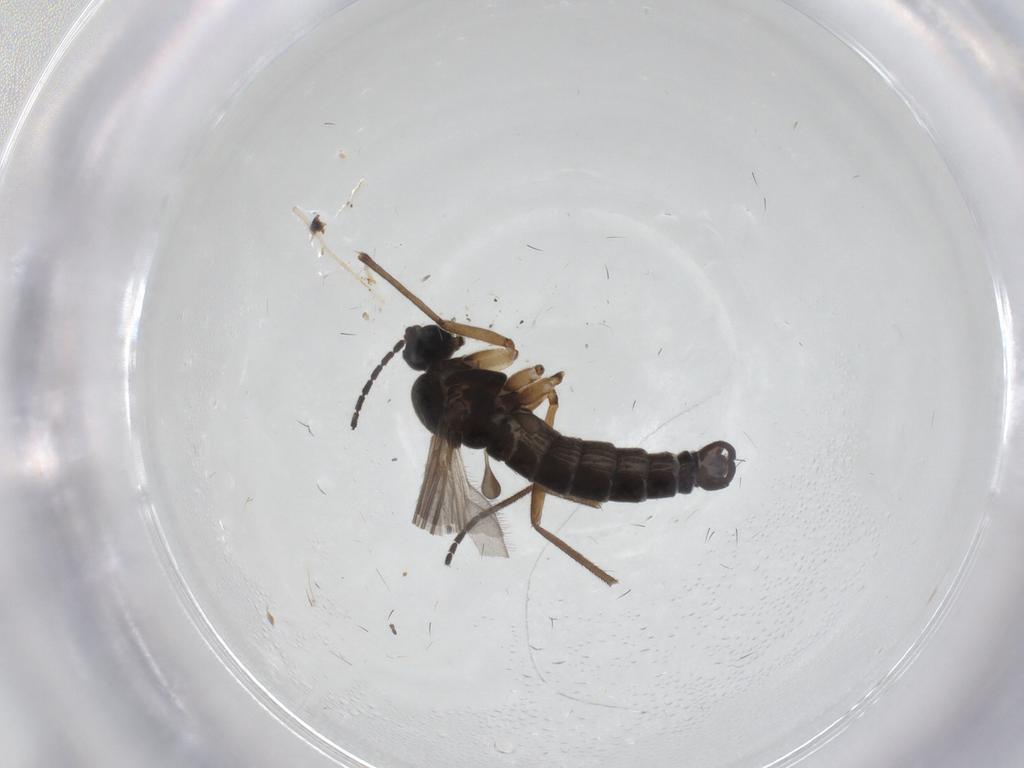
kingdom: Animalia
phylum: Arthropoda
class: Insecta
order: Diptera
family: Sciaridae
